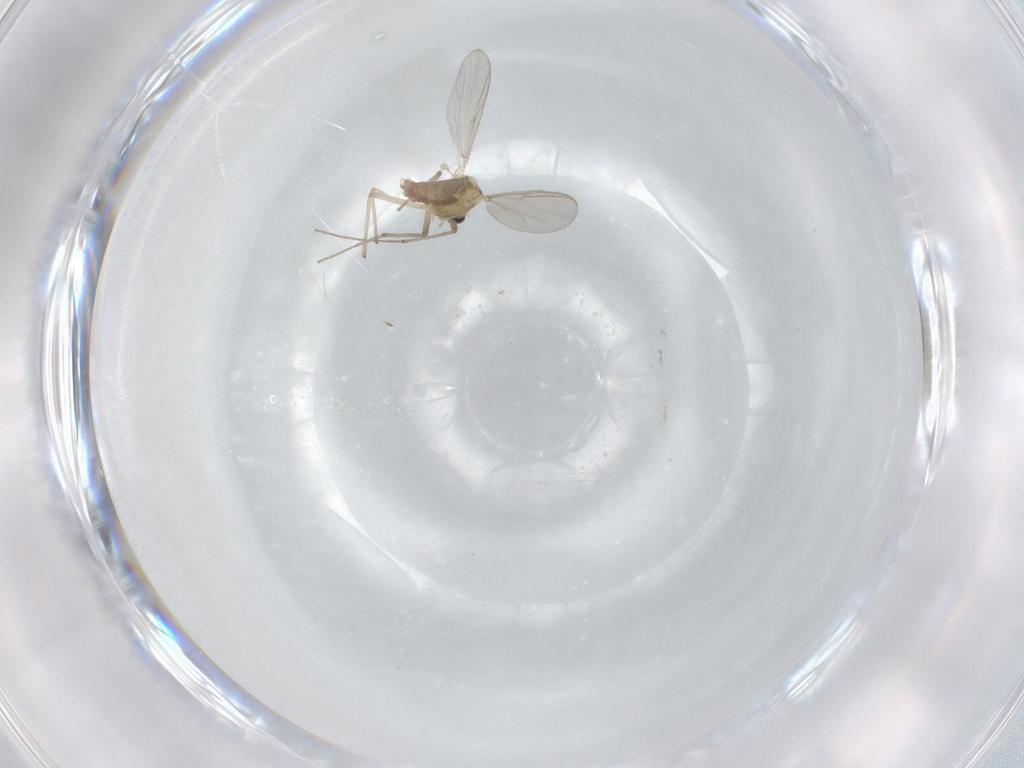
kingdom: Animalia
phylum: Arthropoda
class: Insecta
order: Diptera
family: Chironomidae
